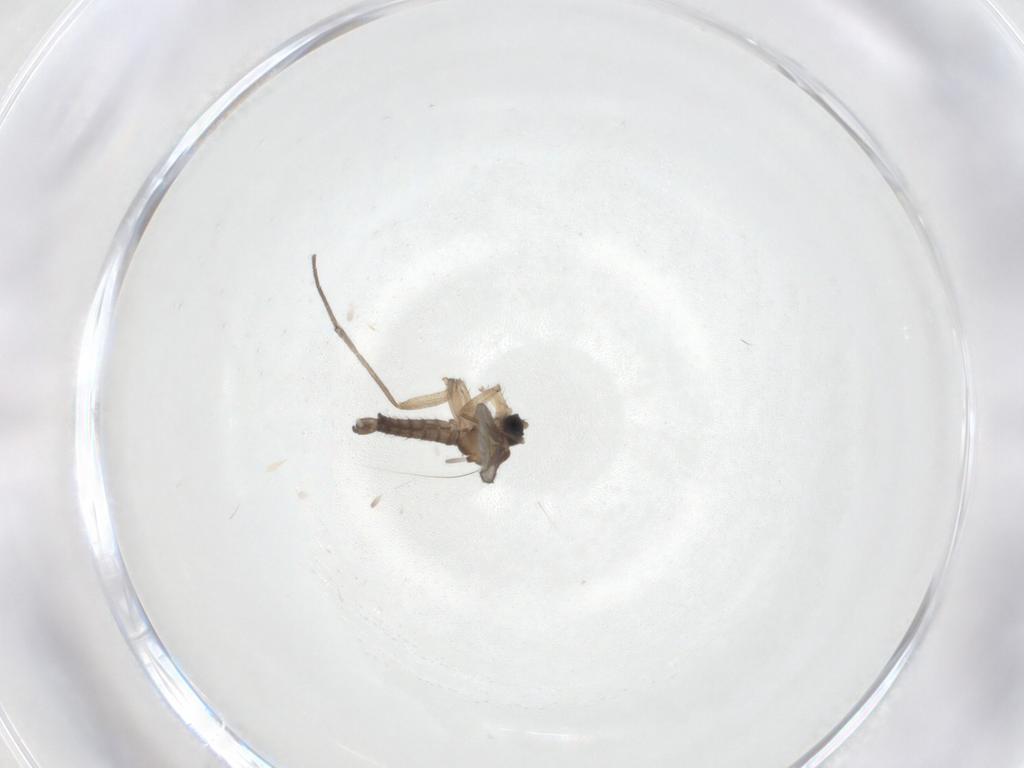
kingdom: Animalia
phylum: Arthropoda
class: Insecta
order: Diptera
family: Sciaridae
